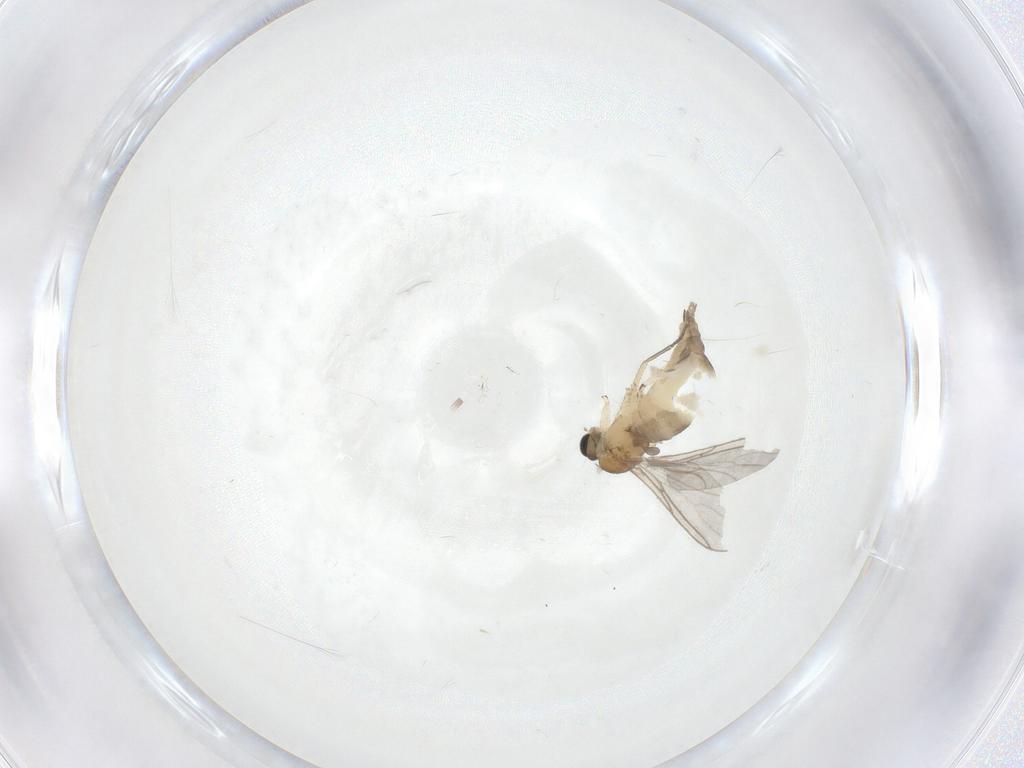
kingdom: Animalia
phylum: Arthropoda
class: Insecta
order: Diptera
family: Sciaridae
